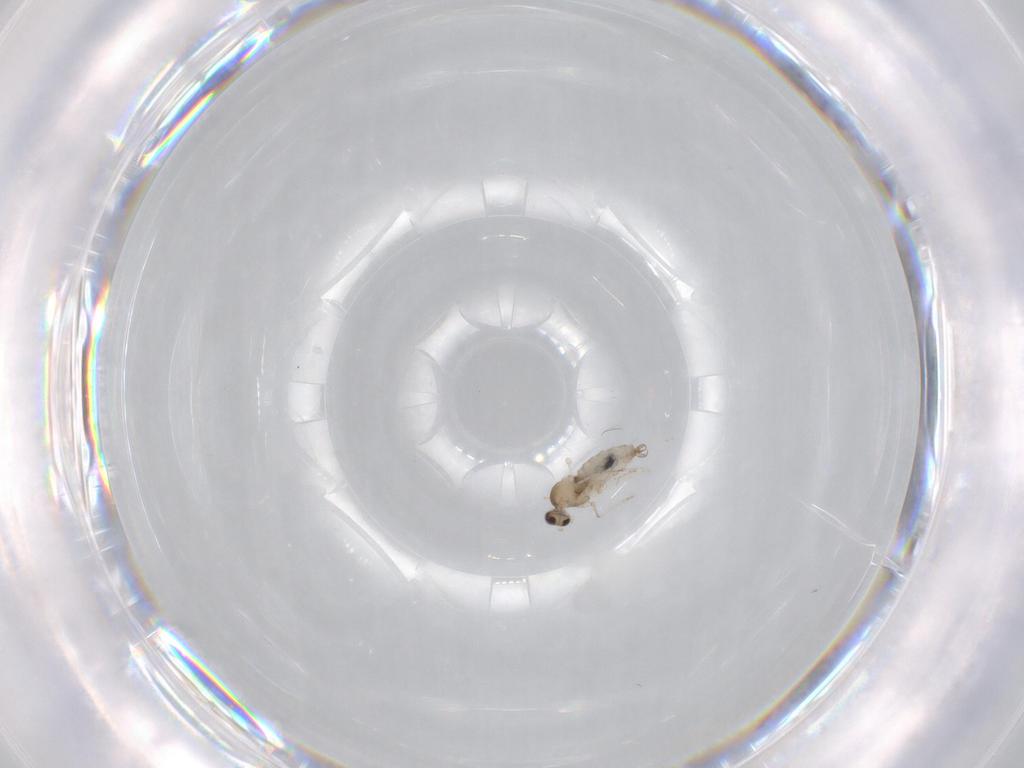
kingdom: Animalia
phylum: Arthropoda
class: Insecta
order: Diptera
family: Cecidomyiidae
